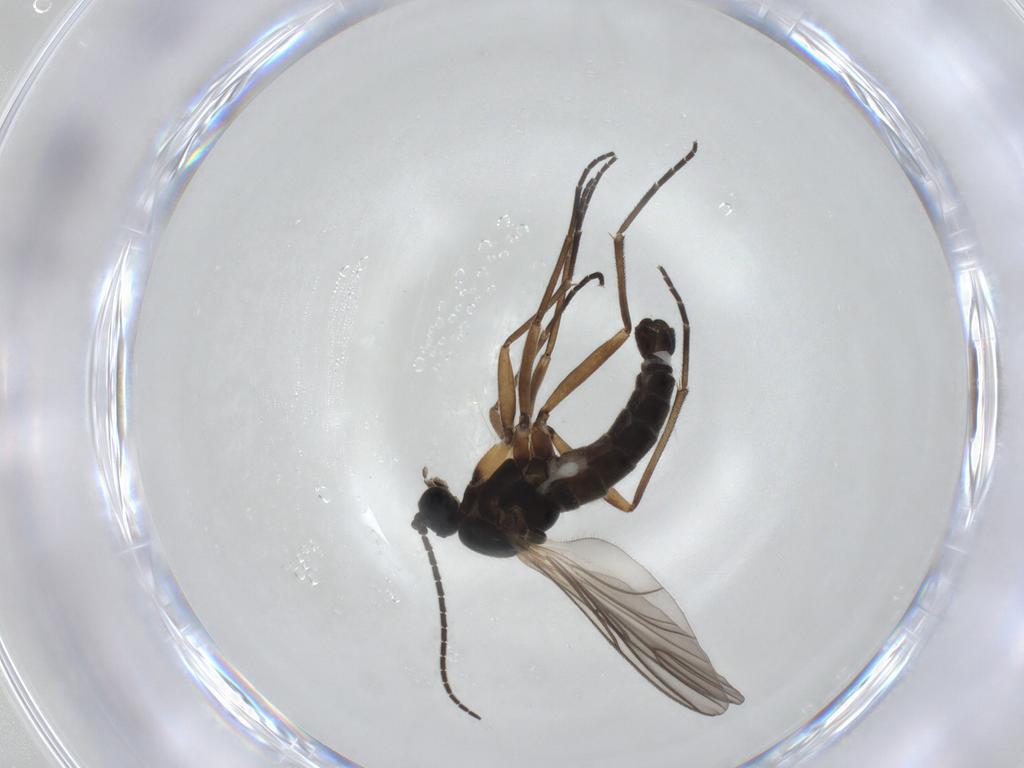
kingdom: Animalia
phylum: Arthropoda
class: Insecta
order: Diptera
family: Sciaridae
